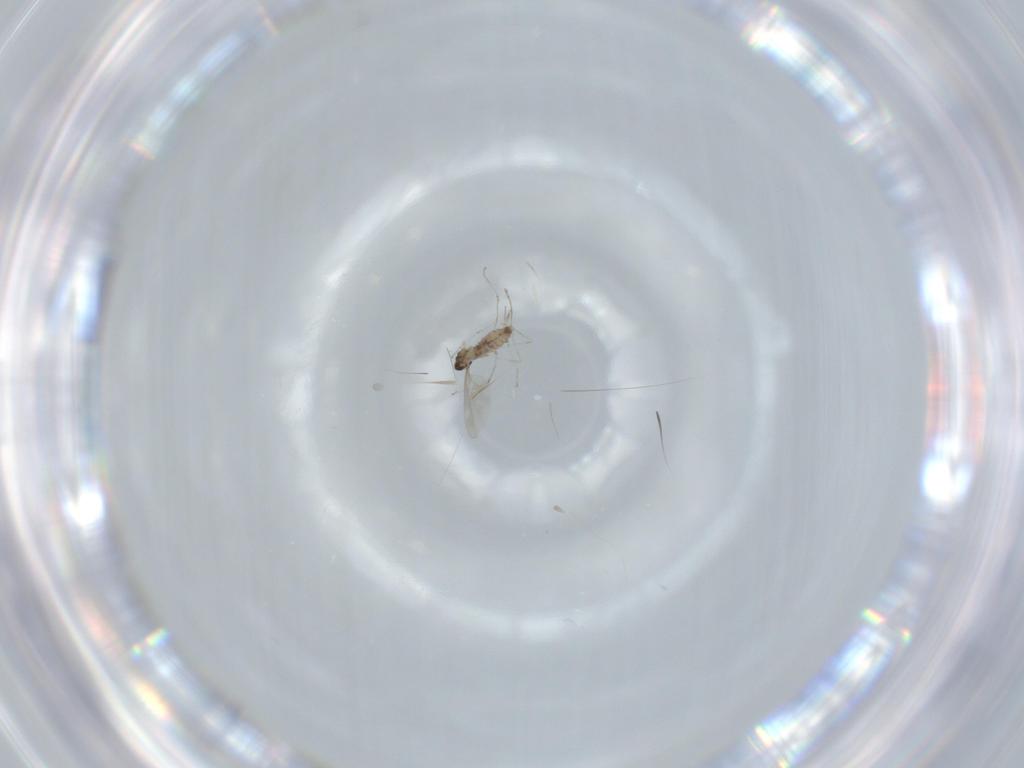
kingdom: Animalia
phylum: Arthropoda
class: Insecta
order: Diptera
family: Cecidomyiidae
